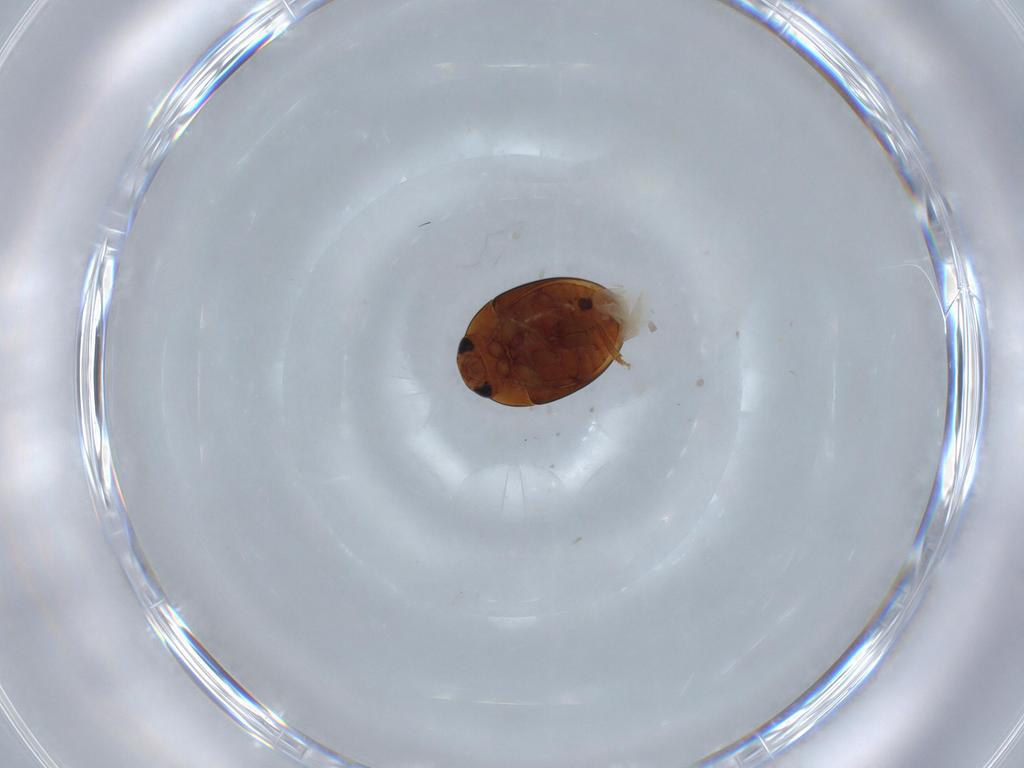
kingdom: Animalia
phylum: Arthropoda
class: Insecta
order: Coleoptera
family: Phalacridae
